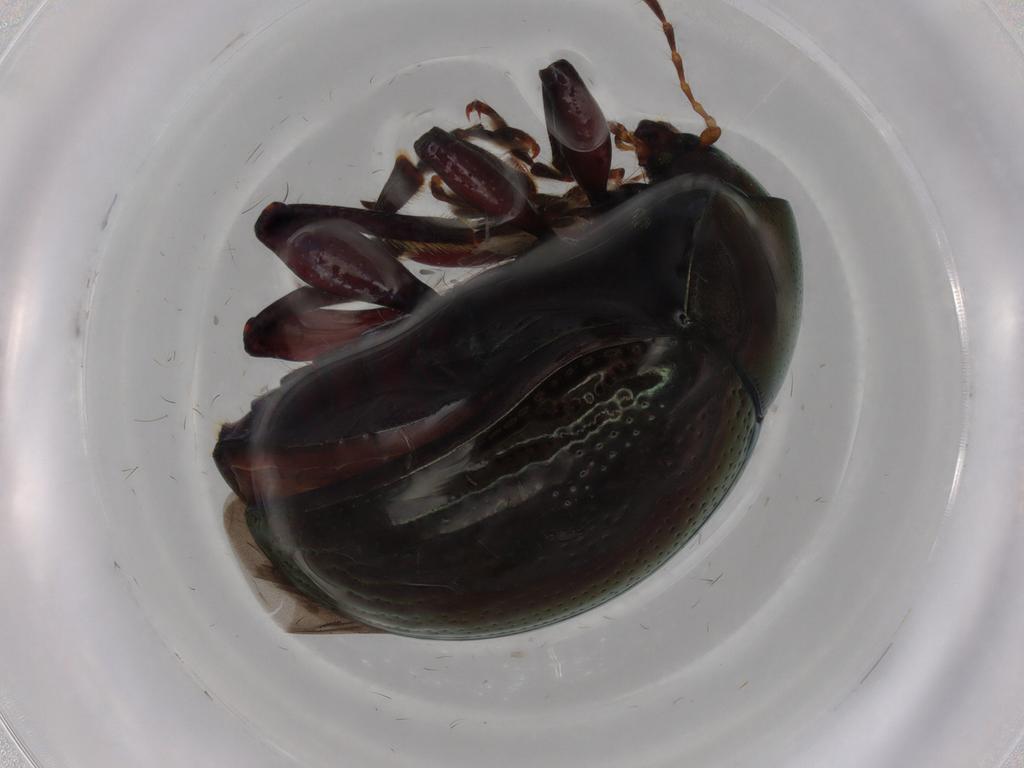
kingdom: Animalia
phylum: Arthropoda
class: Insecta
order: Coleoptera
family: Chrysomelidae
